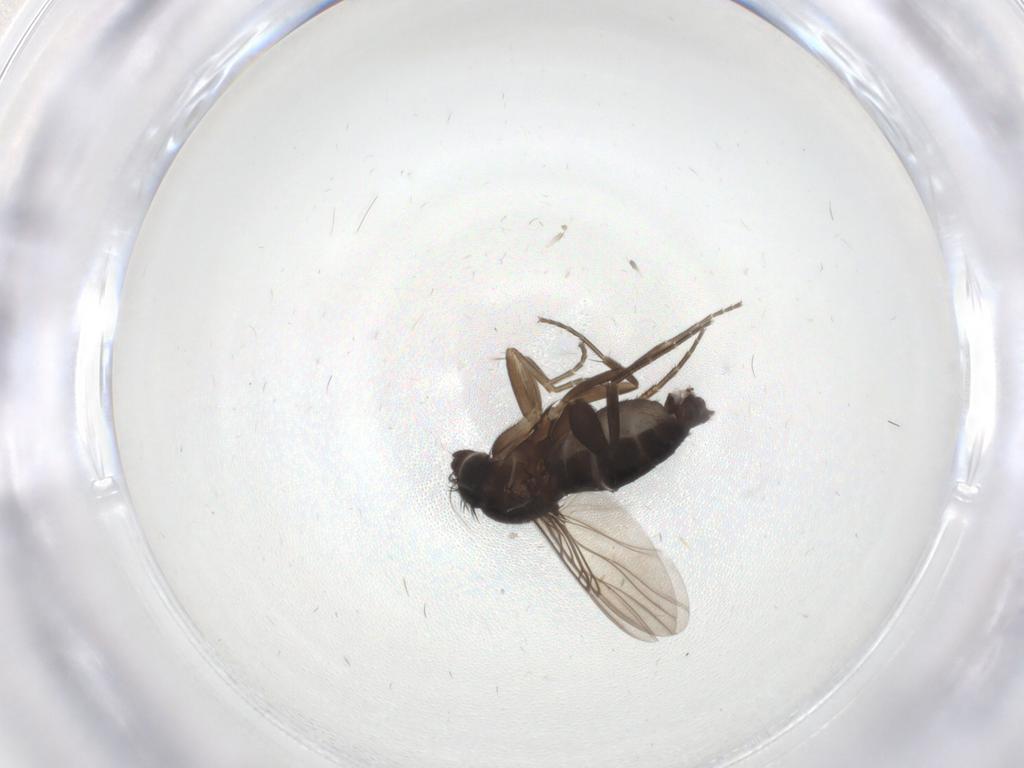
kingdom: Animalia
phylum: Arthropoda
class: Insecta
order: Diptera
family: Phoridae
